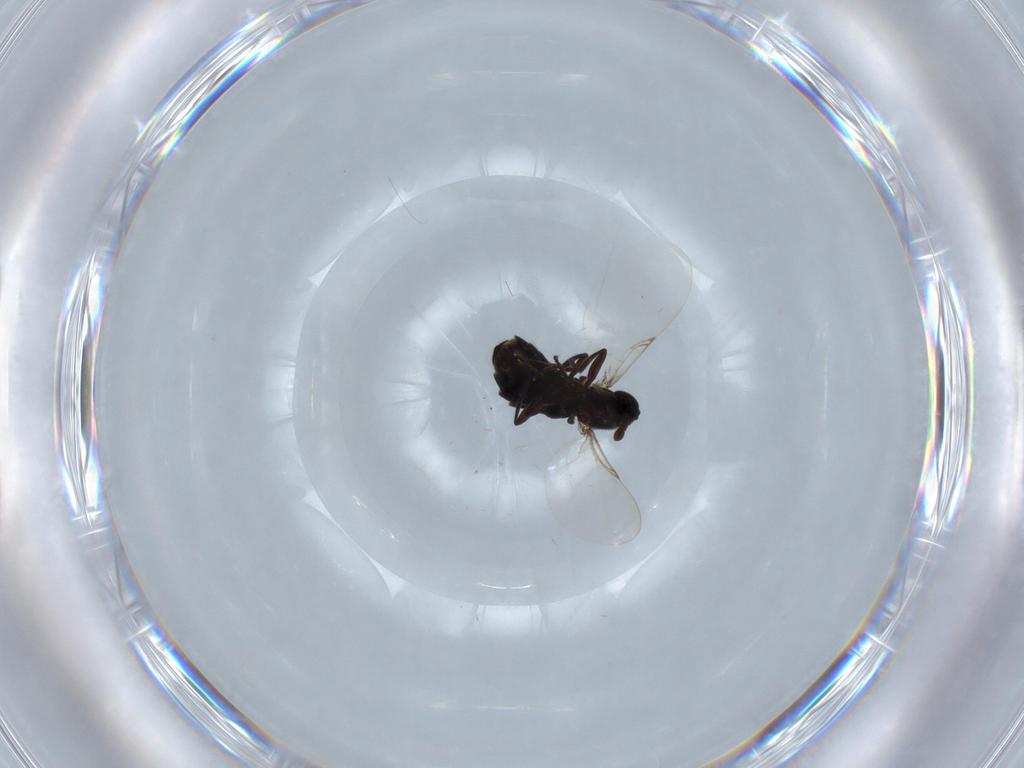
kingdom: Animalia
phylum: Arthropoda
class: Insecta
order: Diptera
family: Scatopsidae
